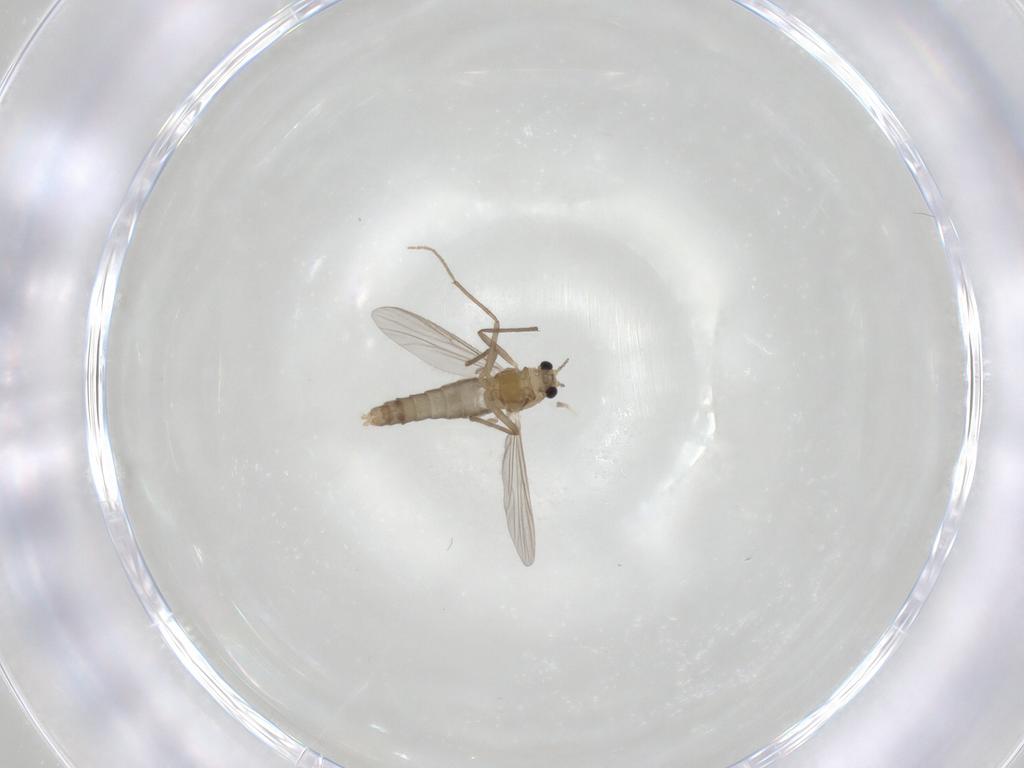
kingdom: Animalia
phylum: Arthropoda
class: Insecta
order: Diptera
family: Chironomidae
